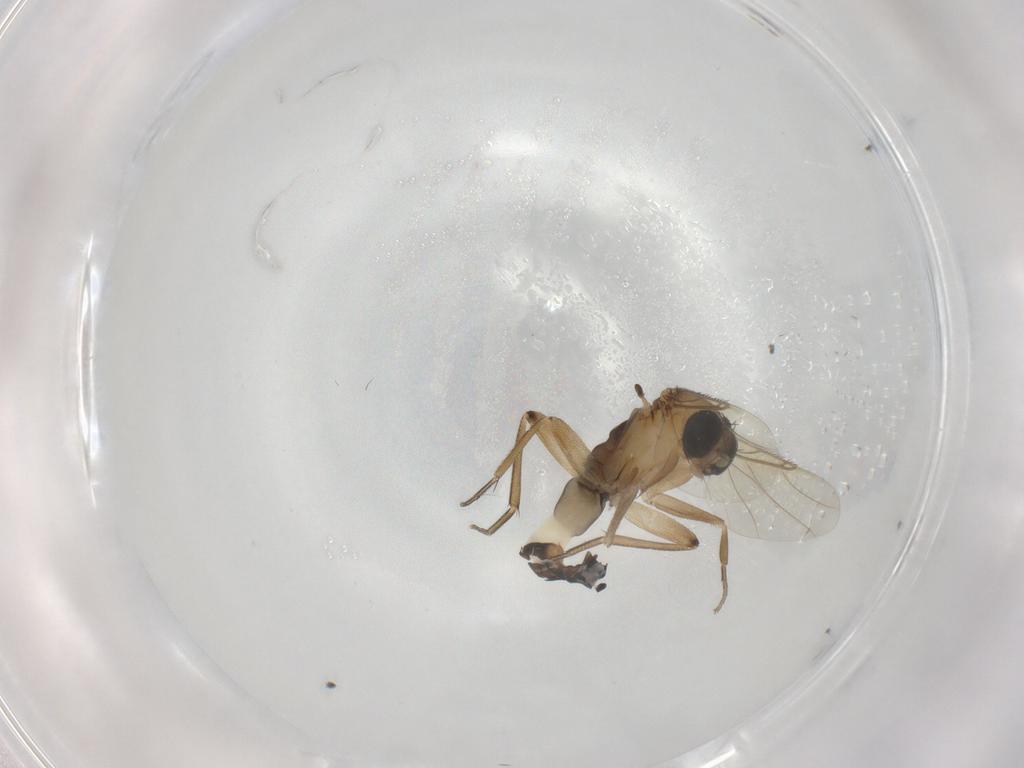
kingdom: Animalia
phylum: Arthropoda
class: Insecta
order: Diptera
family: Phoridae
